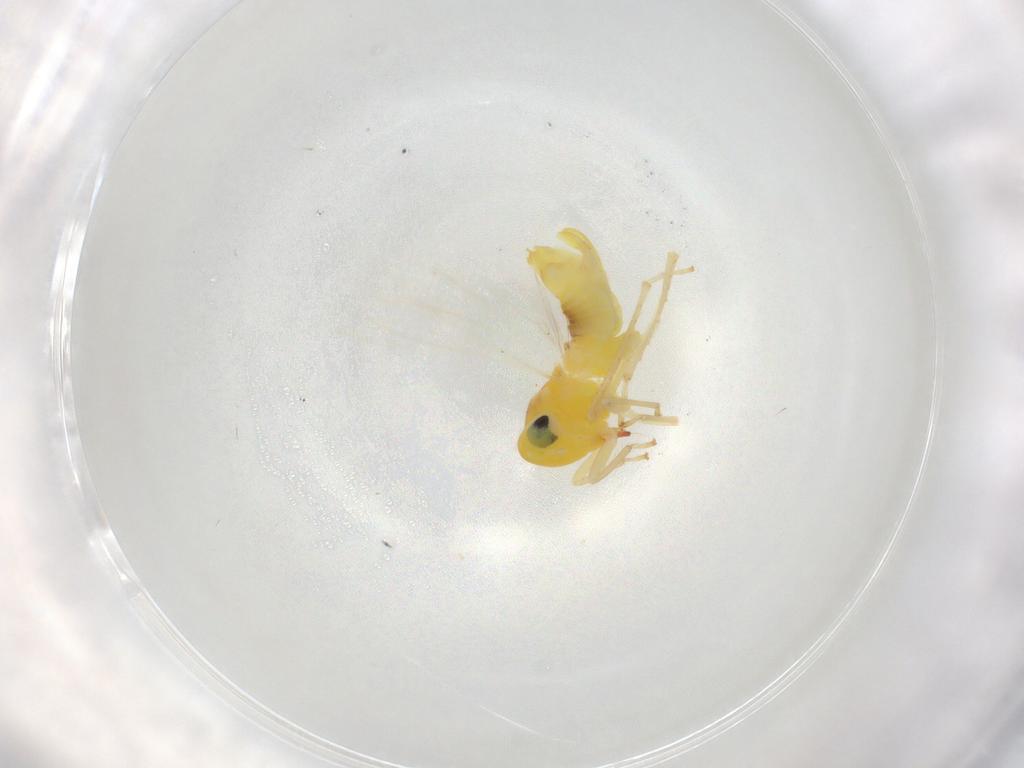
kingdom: Animalia
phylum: Arthropoda
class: Insecta
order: Hemiptera
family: Cicadellidae
